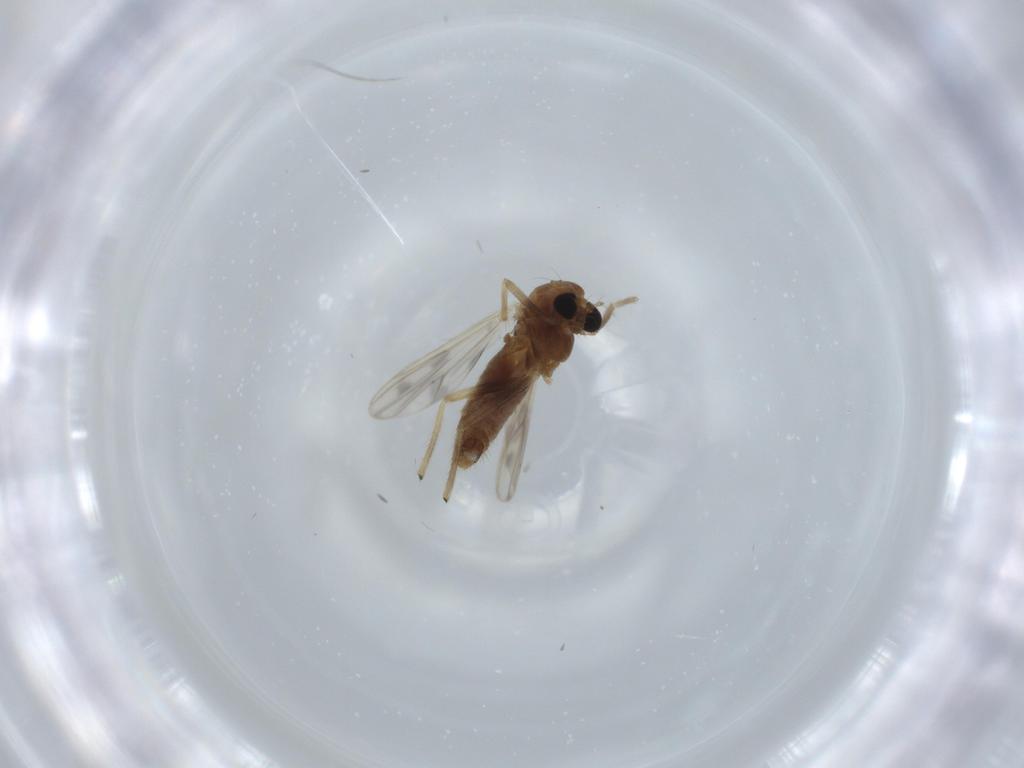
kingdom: Animalia
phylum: Arthropoda
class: Insecta
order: Diptera
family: Chironomidae
